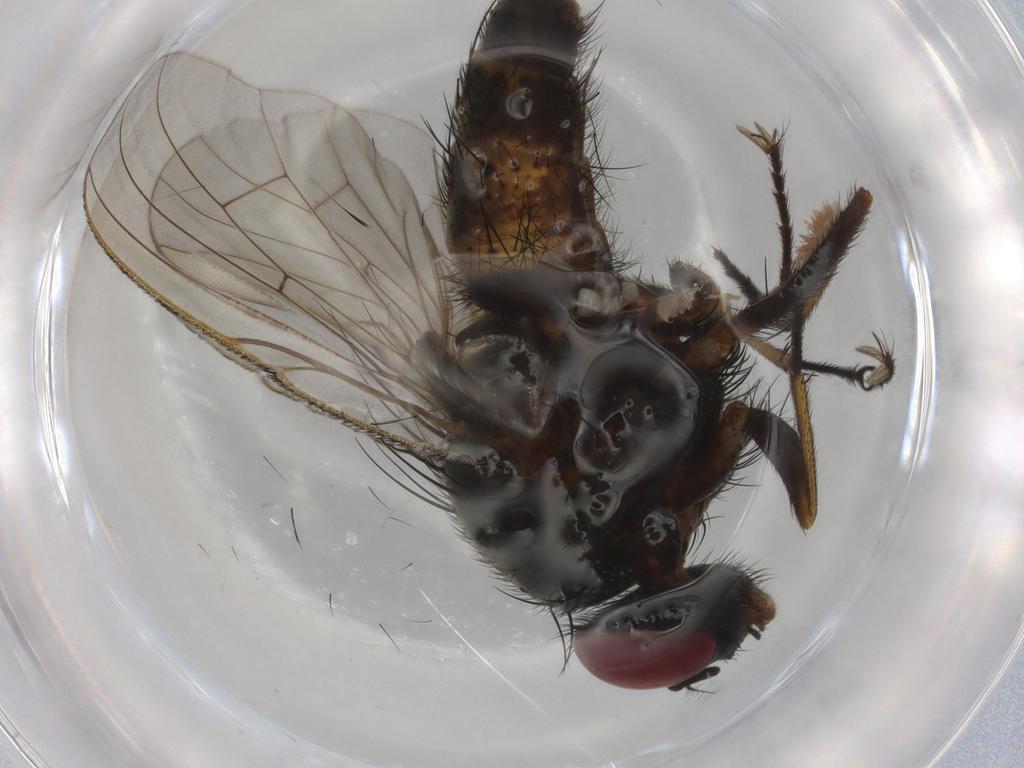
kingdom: Animalia
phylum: Arthropoda
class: Insecta
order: Diptera
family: Muscidae
